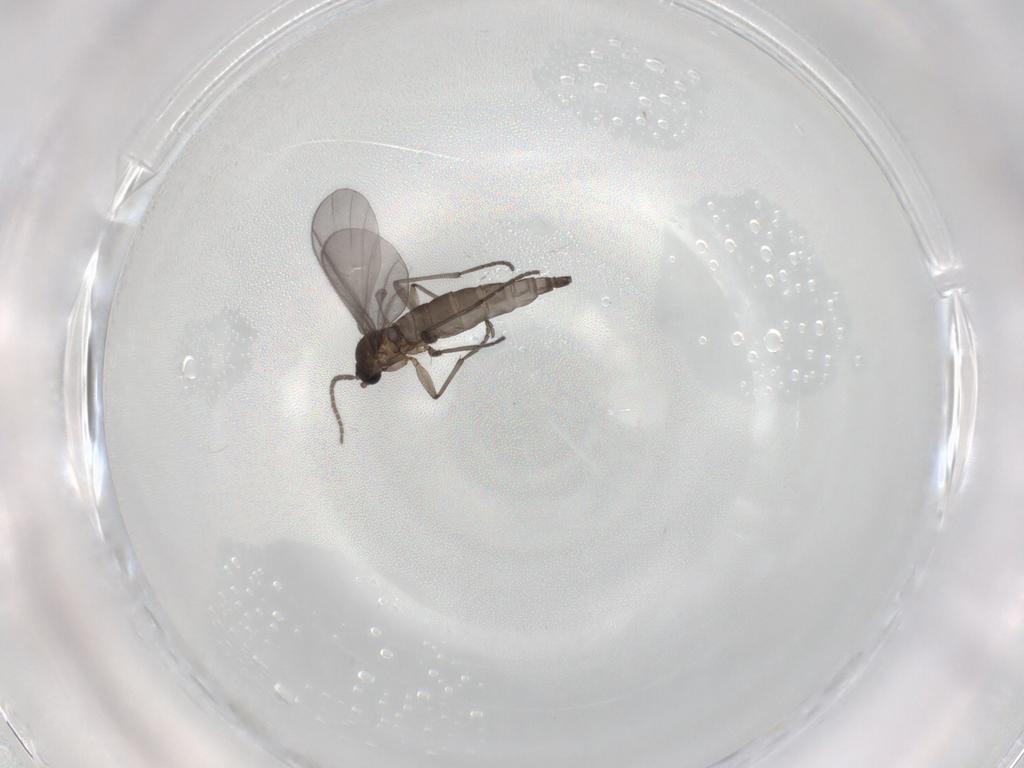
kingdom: Animalia
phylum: Arthropoda
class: Insecta
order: Diptera
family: Sciaridae
